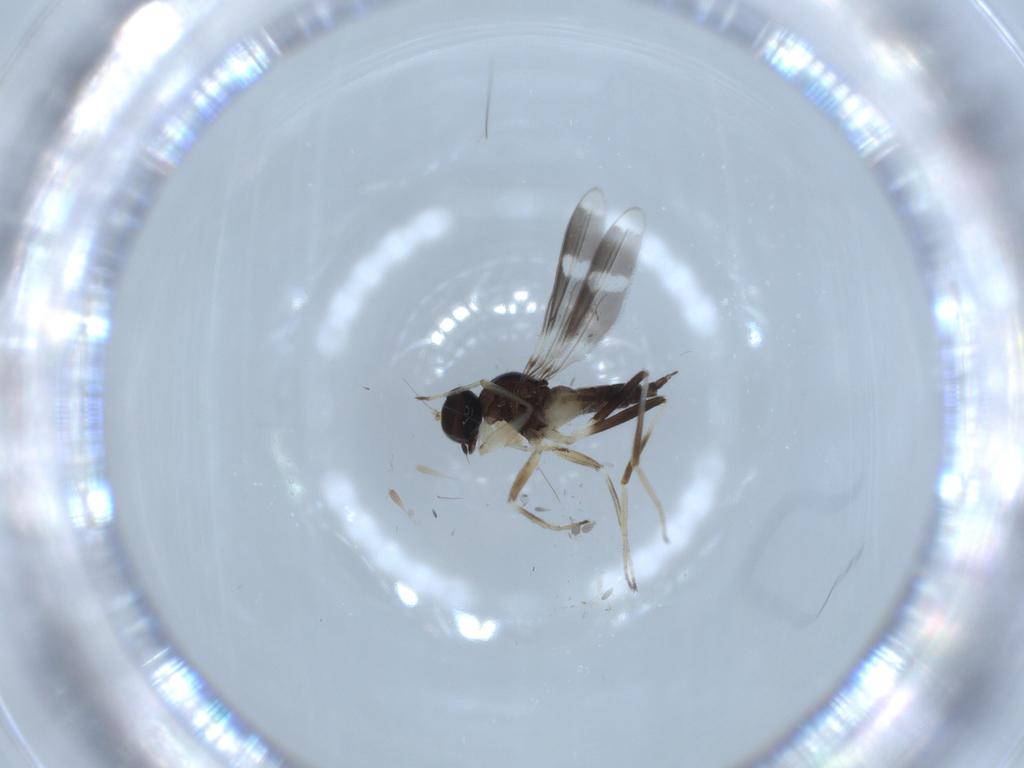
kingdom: Animalia
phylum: Arthropoda
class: Insecta
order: Diptera
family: Hybotidae
